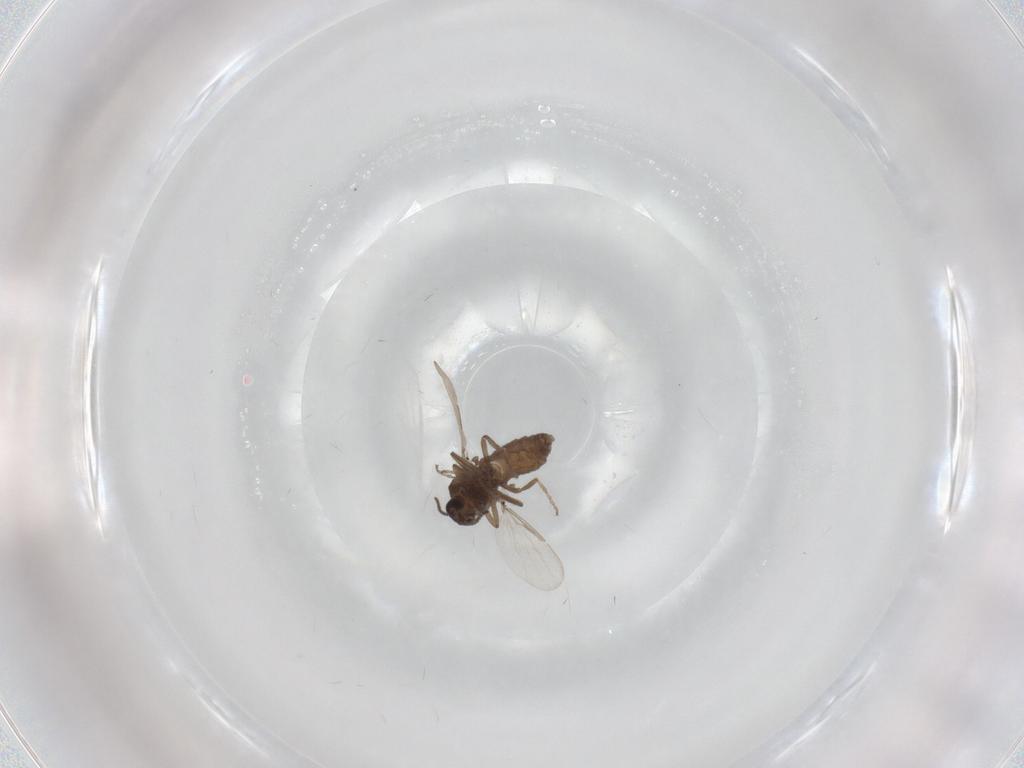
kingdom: Animalia
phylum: Arthropoda
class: Insecta
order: Diptera
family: Ceratopogonidae
